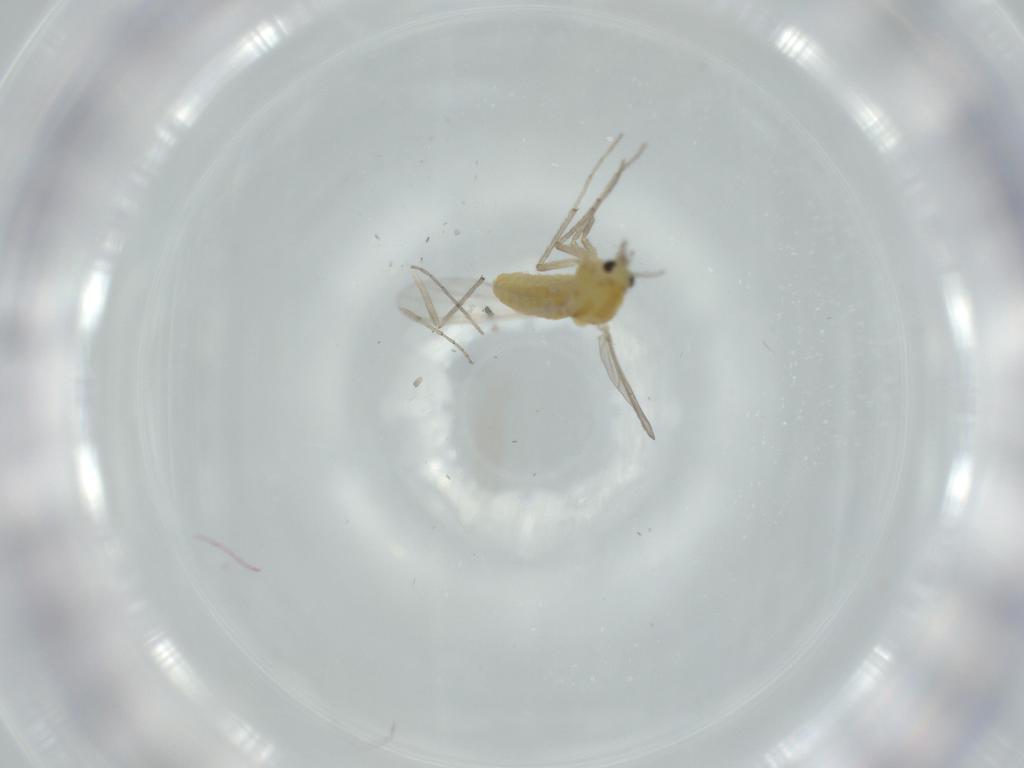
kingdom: Animalia
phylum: Arthropoda
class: Insecta
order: Diptera
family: Chironomidae
